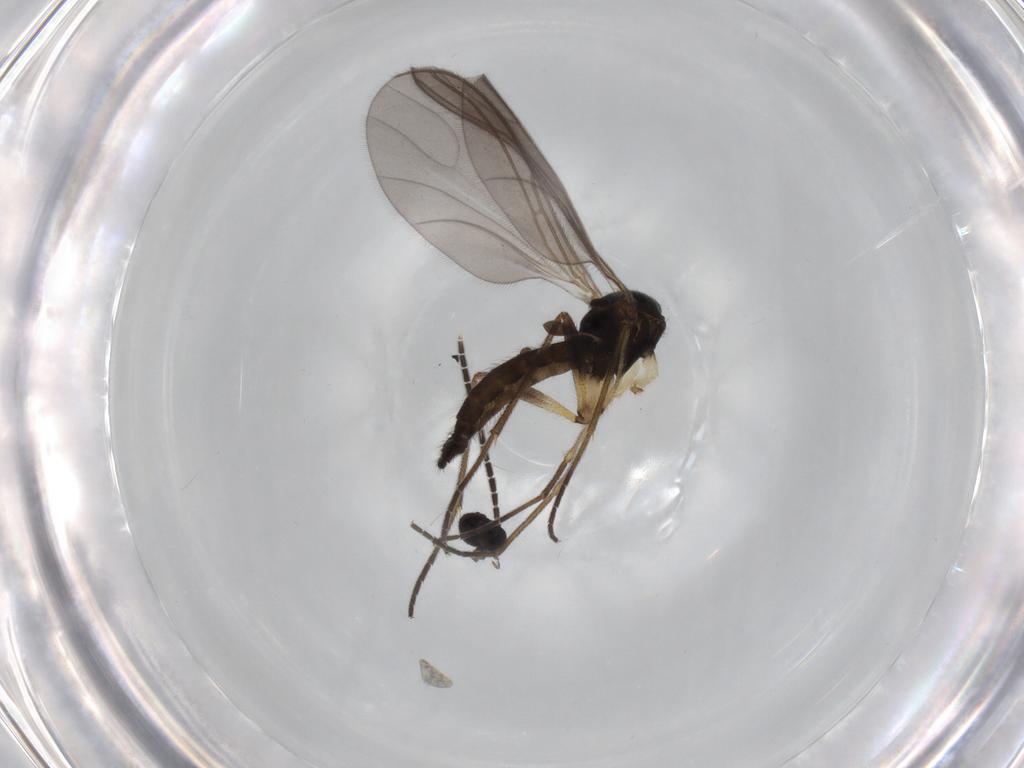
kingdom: Animalia
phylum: Arthropoda
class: Insecta
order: Diptera
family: Sciaridae
